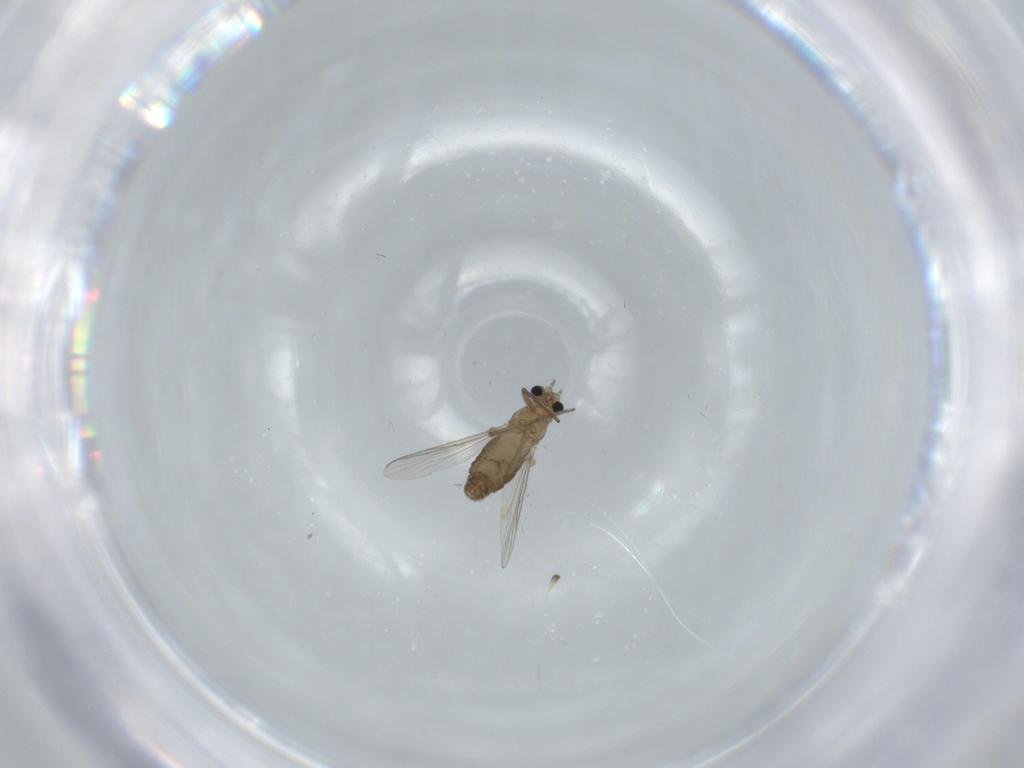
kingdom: Animalia
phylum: Arthropoda
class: Insecta
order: Diptera
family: Chironomidae
